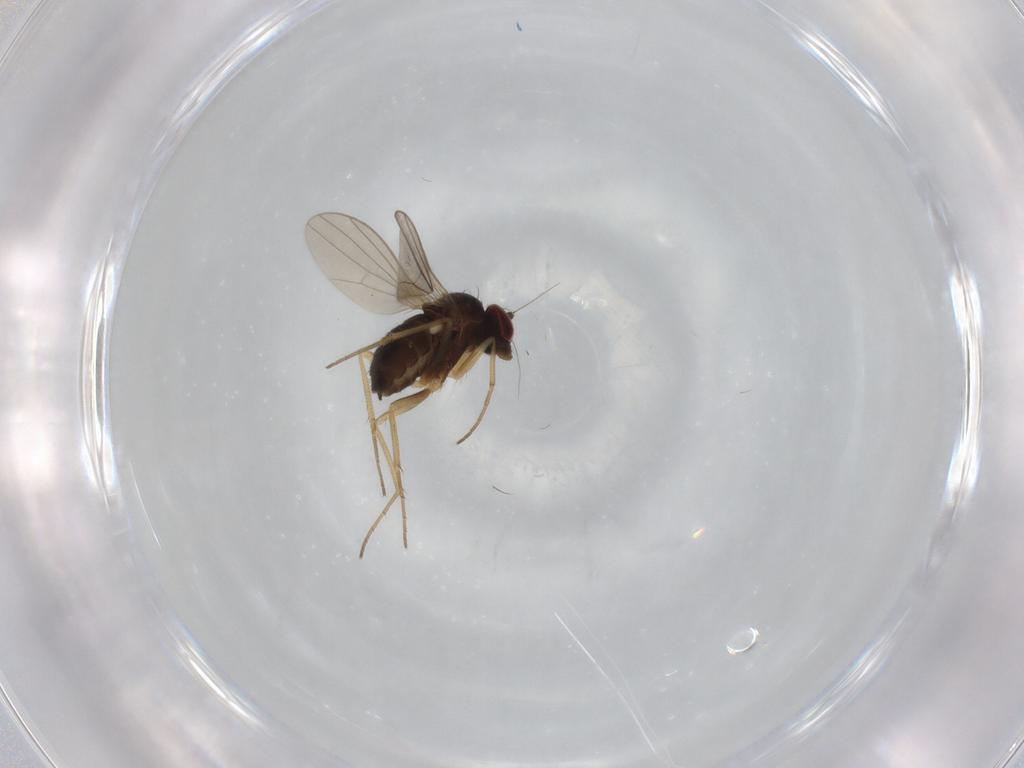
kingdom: Animalia
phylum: Arthropoda
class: Insecta
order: Diptera
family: Dolichopodidae
